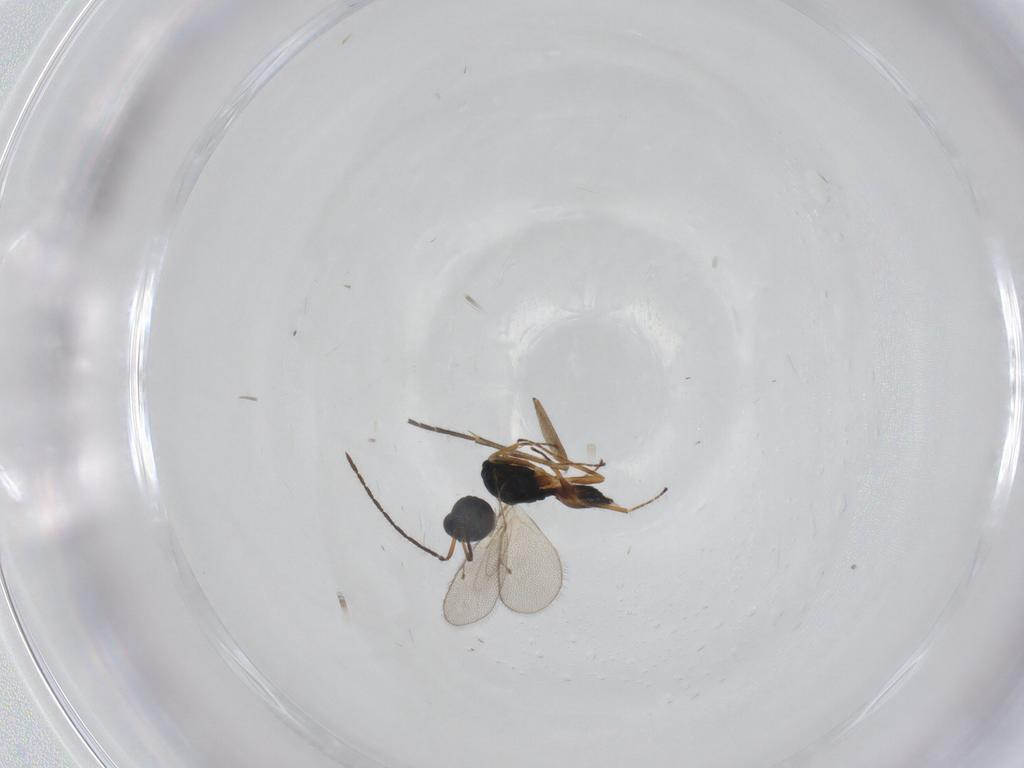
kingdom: Animalia
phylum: Arthropoda
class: Insecta
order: Hymenoptera
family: Pteromalidae
